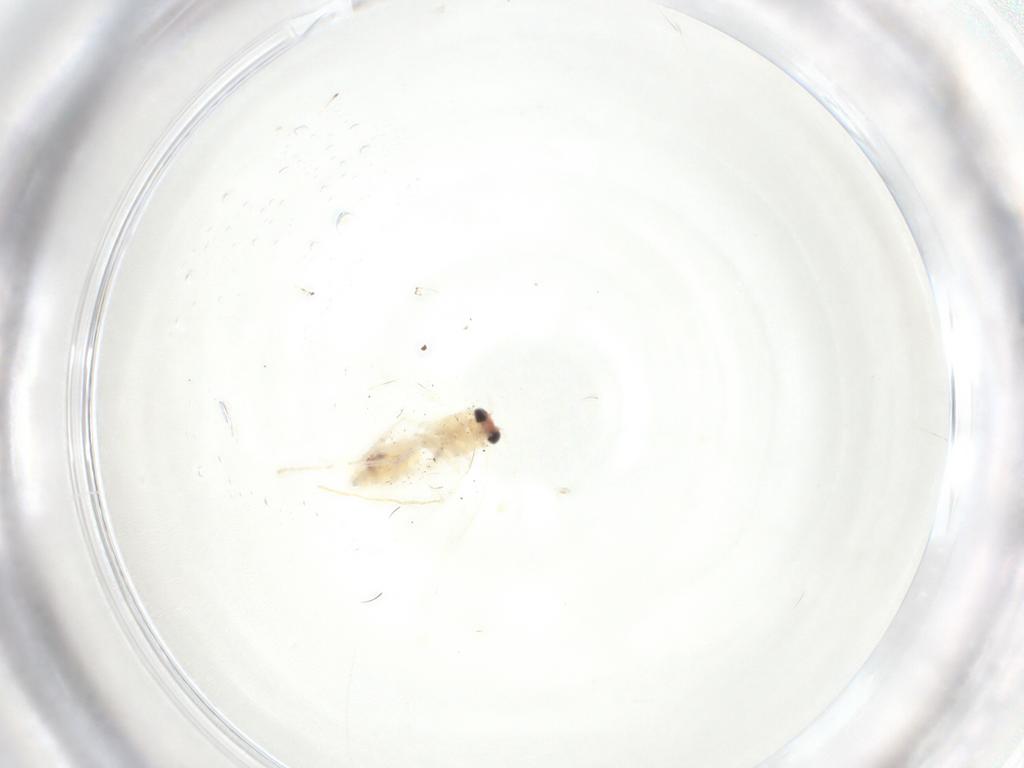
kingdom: Animalia
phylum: Arthropoda
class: Insecta
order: Lepidoptera
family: Gelechiidae
